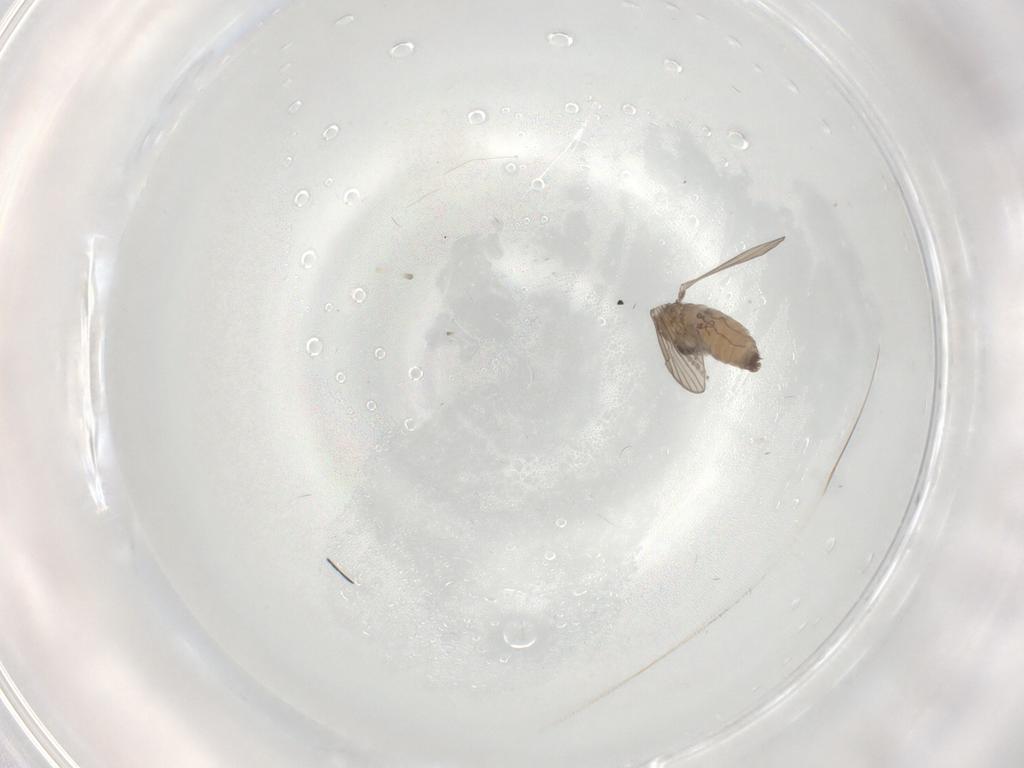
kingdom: Animalia
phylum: Arthropoda
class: Insecta
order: Diptera
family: Psychodidae
